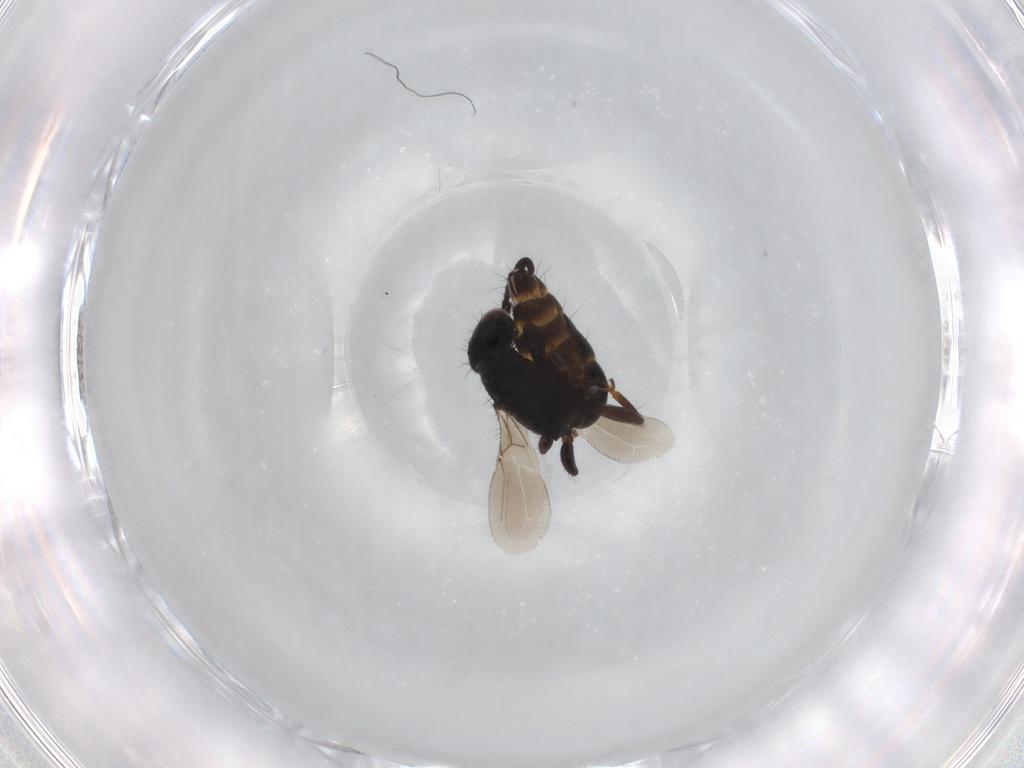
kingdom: Animalia
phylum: Arthropoda
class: Insecta
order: Hymenoptera
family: Bethylidae
